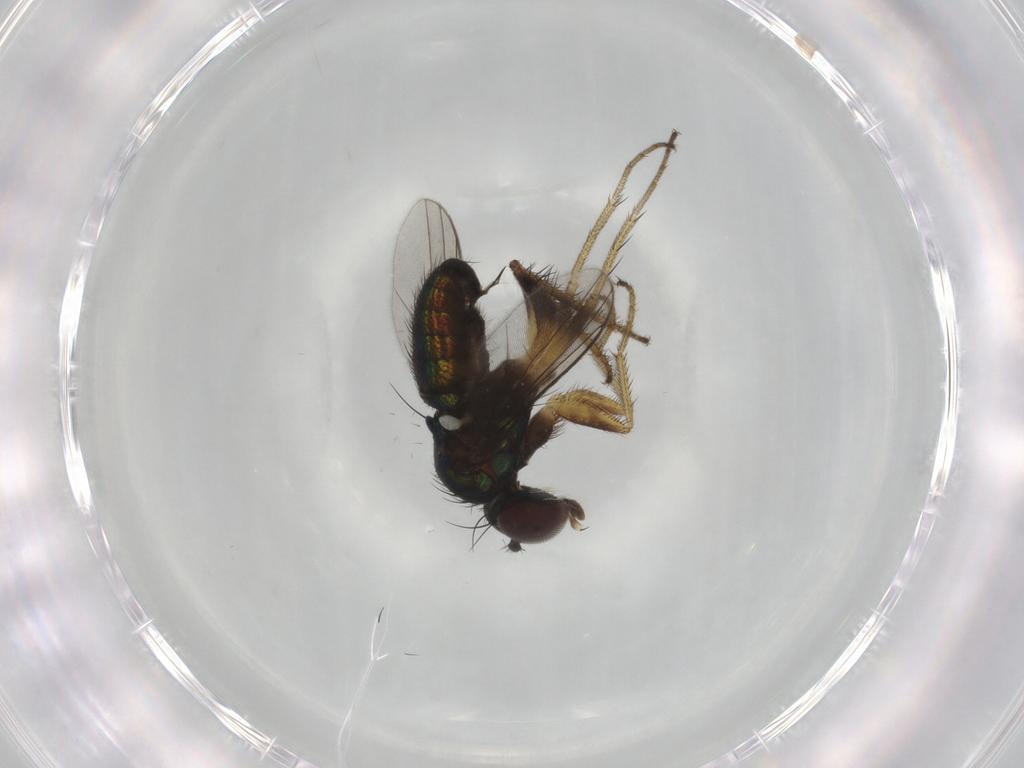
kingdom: Animalia
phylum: Arthropoda
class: Insecta
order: Diptera
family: Dolichopodidae
